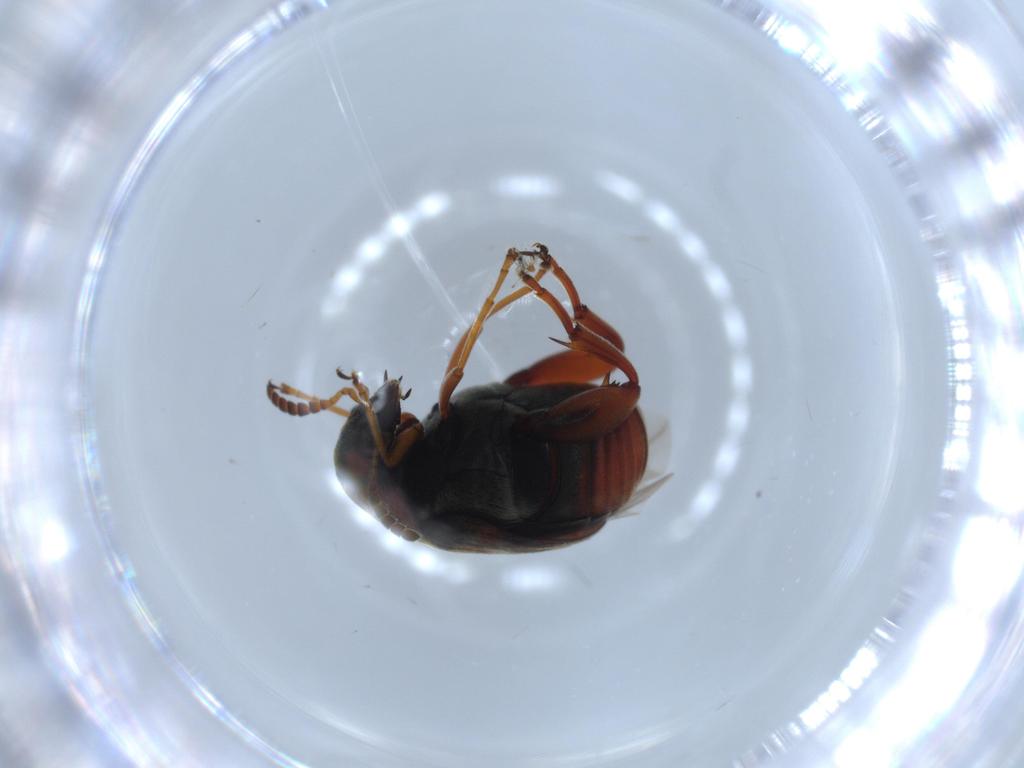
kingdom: Animalia
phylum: Arthropoda
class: Insecta
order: Coleoptera
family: Chrysomelidae
